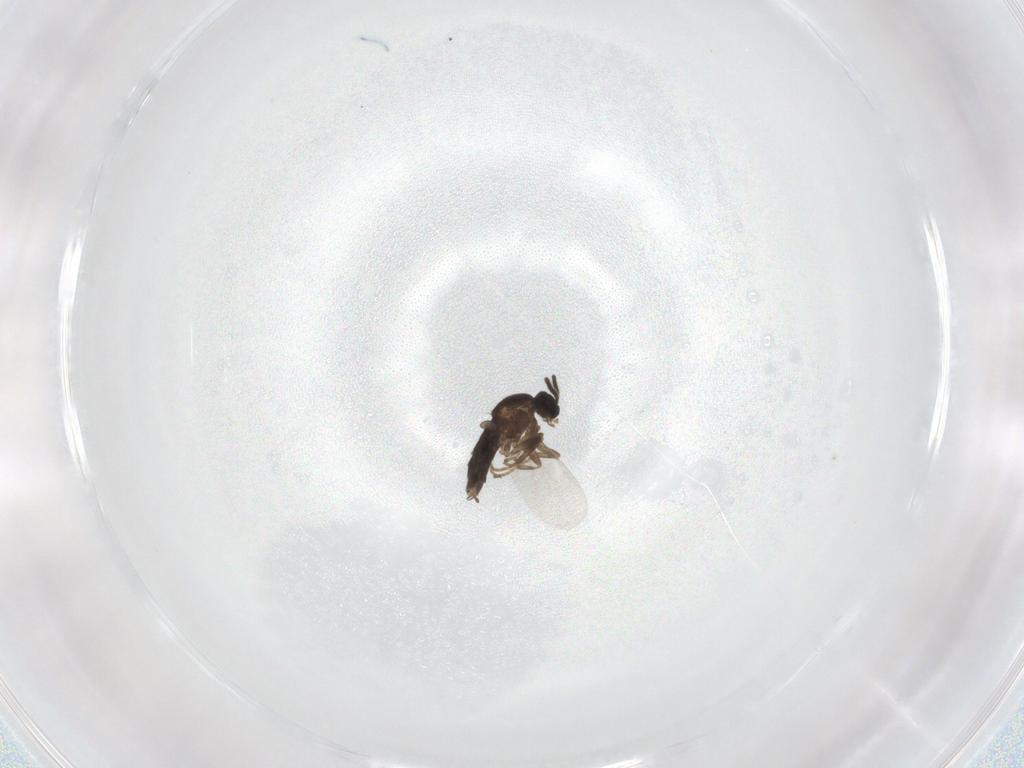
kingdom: Animalia
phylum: Arthropoda
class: Insecta
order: Diptera
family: Scatopsidae
